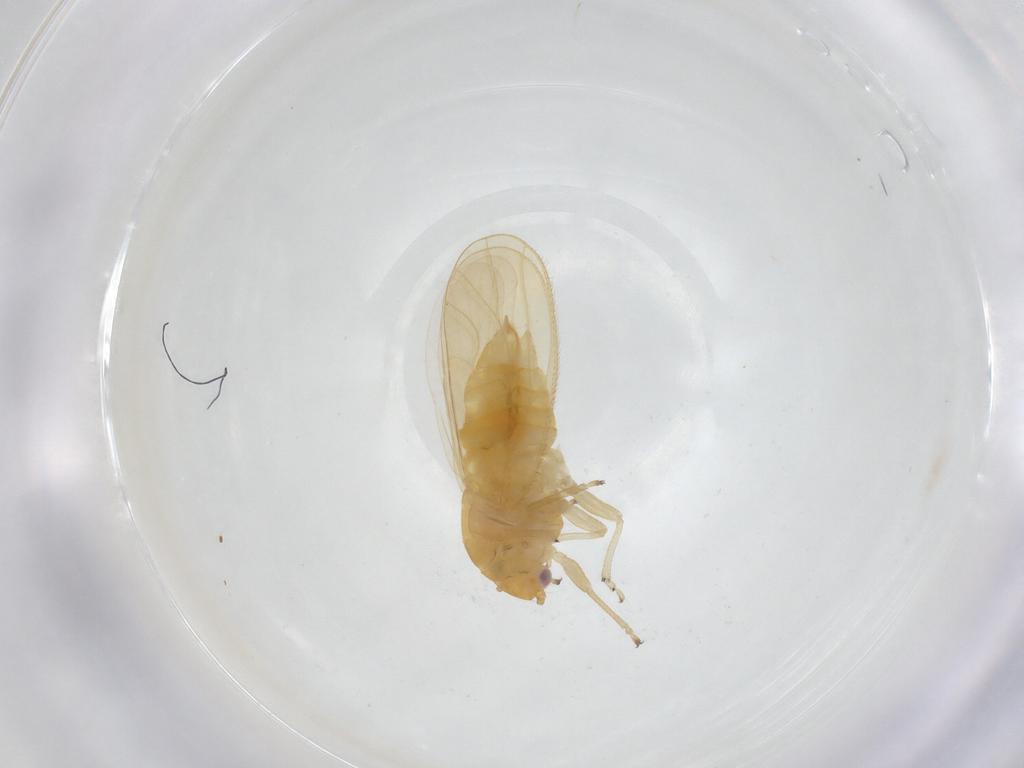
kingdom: Animalia
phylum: Arthropoda
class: Insecta
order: Hemiptera
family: Psyllidae
